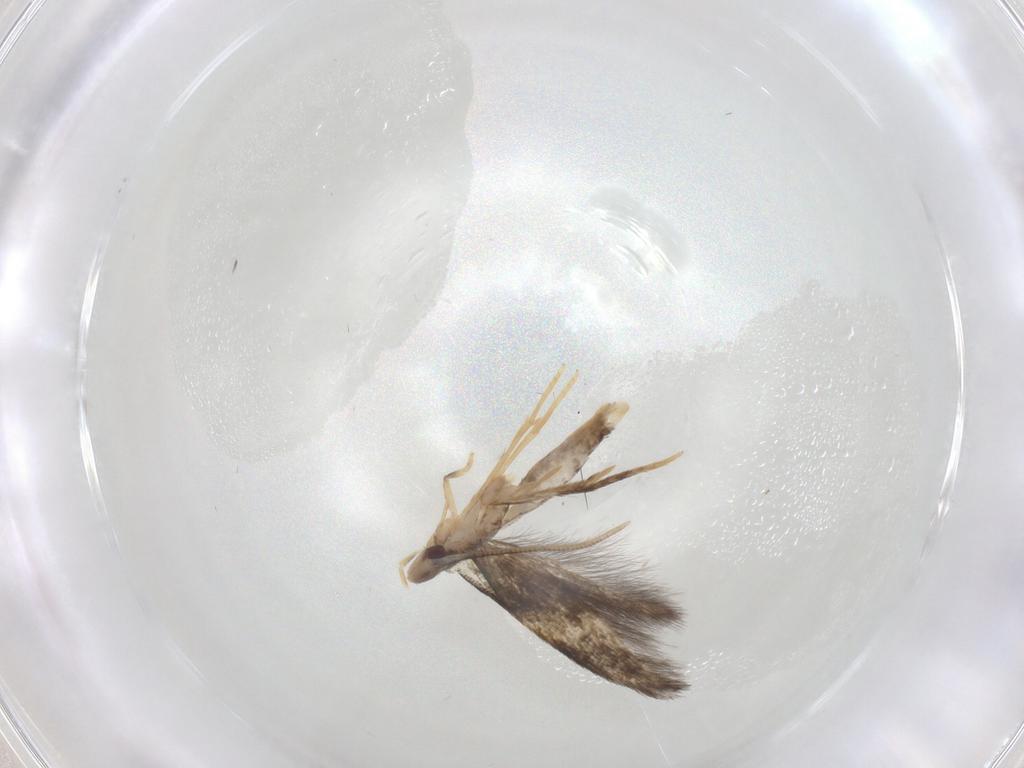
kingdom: Animalia
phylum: Arthropoda
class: Insecta
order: Lepidoptera
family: Gelechiidae
